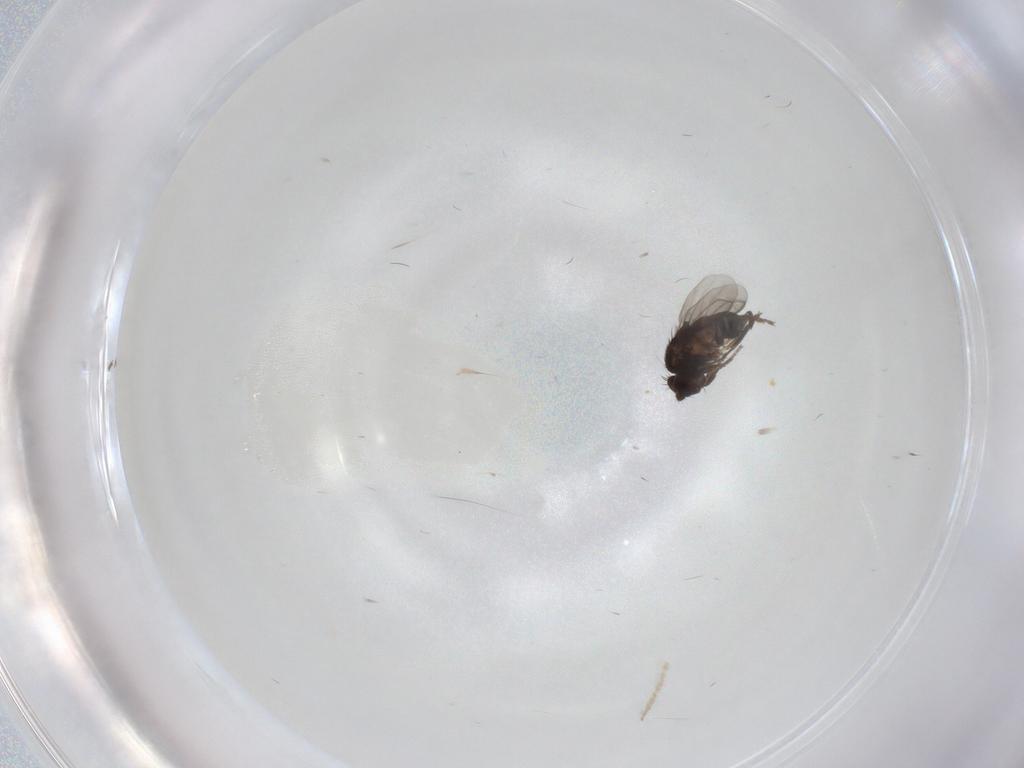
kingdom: Animalia
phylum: Arthropoda
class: Insecta
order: Diptera
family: Sphaeroceridae
